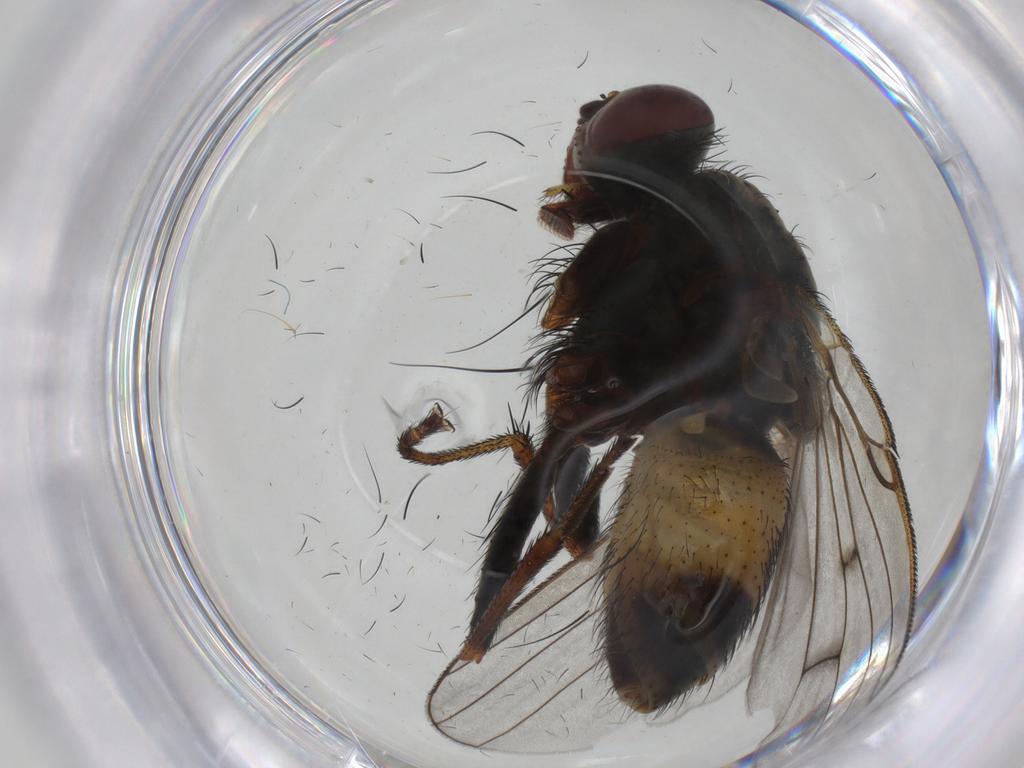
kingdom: Animalia
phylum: Arthropoda
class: Insecta
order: Diptera
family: Muscidae
